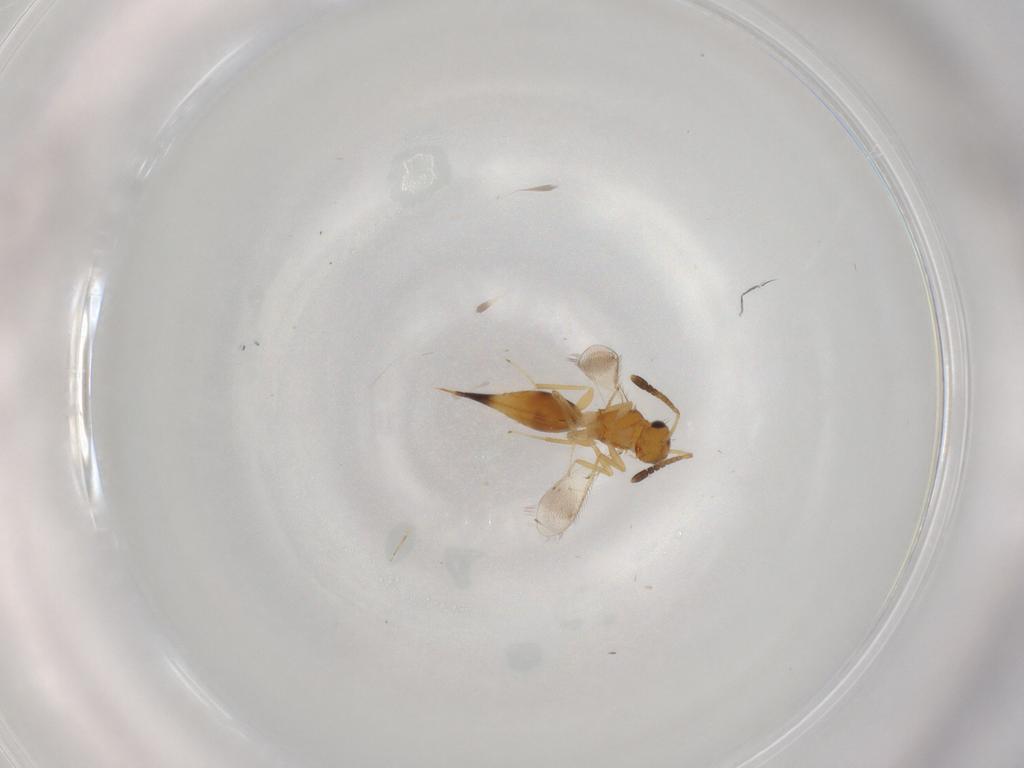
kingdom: Animalia
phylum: Arthropoda
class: Insecta
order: Hymenoptera
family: Diparidae
